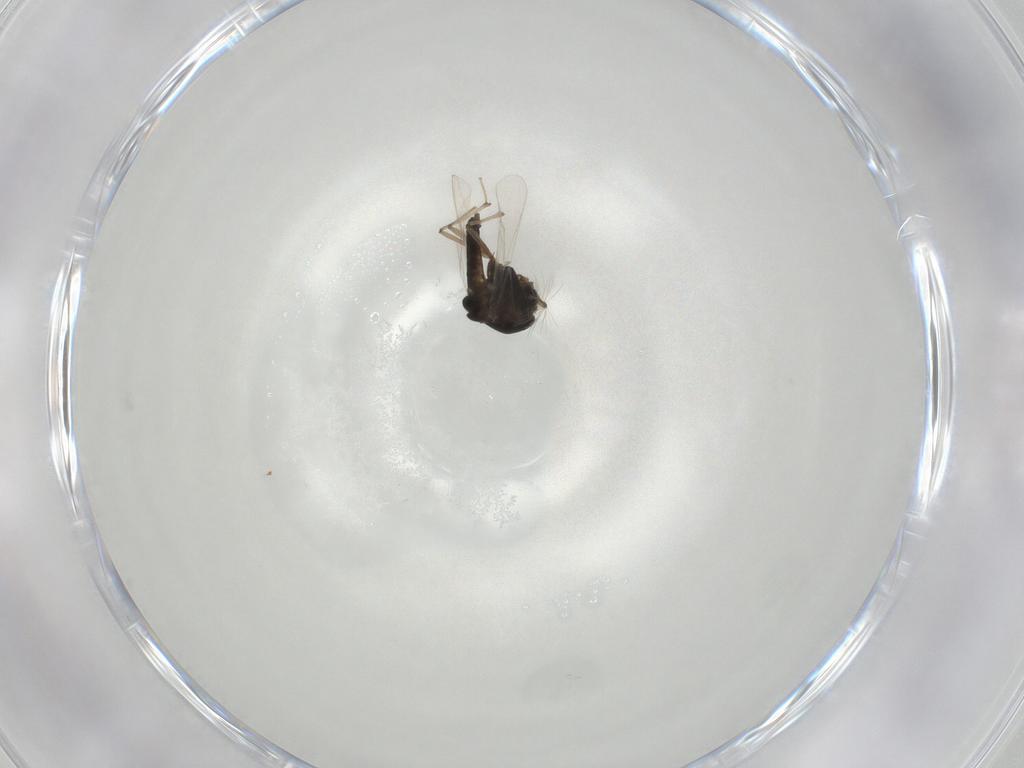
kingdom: Animalia
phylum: Arthropoda
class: Insecta
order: Diptera
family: Chironomidae
